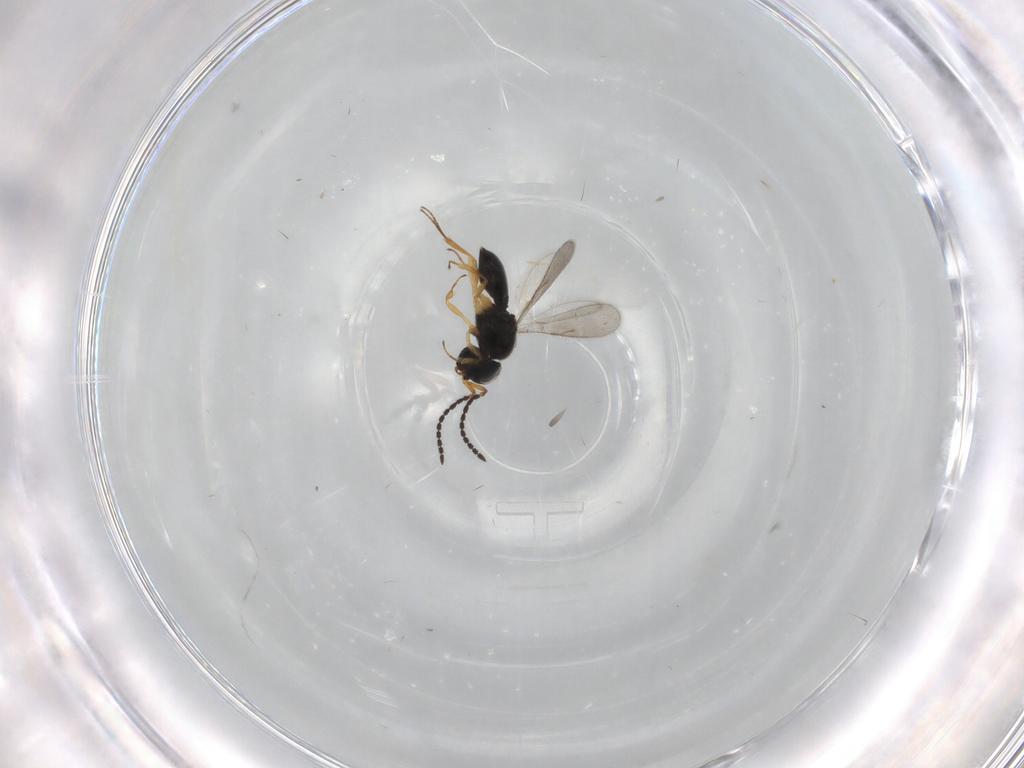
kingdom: Animalia
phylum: Arthropoda
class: Insecta
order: Hymenoptera
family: Scelionidae
